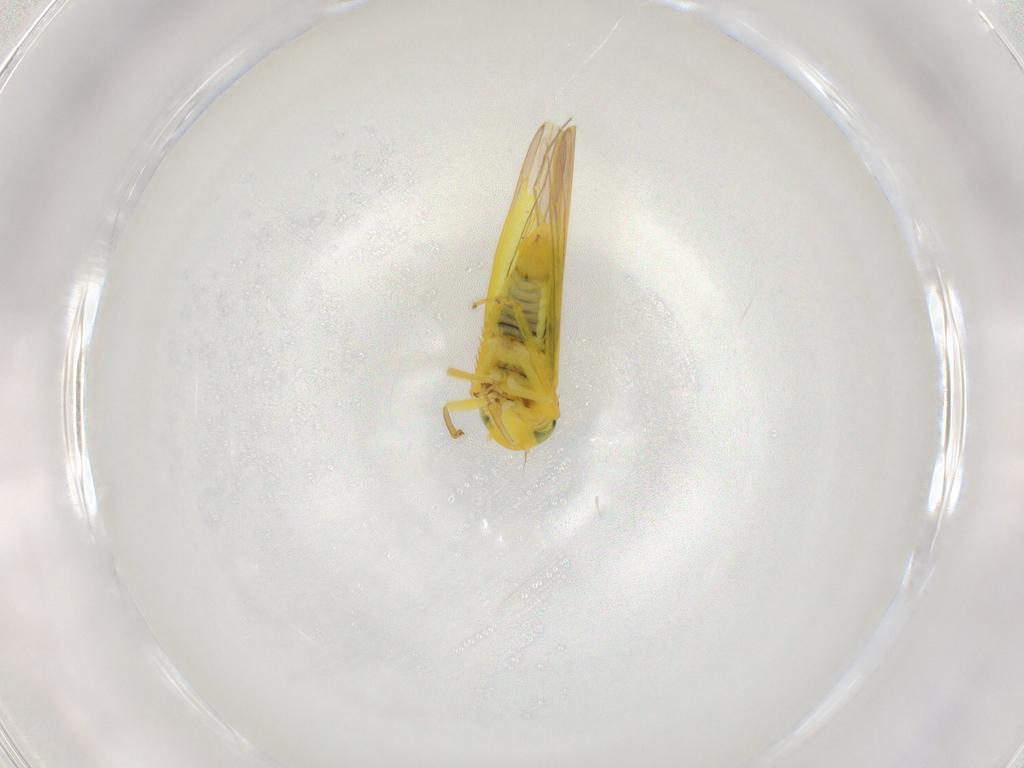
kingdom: Animalia
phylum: Arthropoda
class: Insecta
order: Hemiptera
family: Cicadellidae
